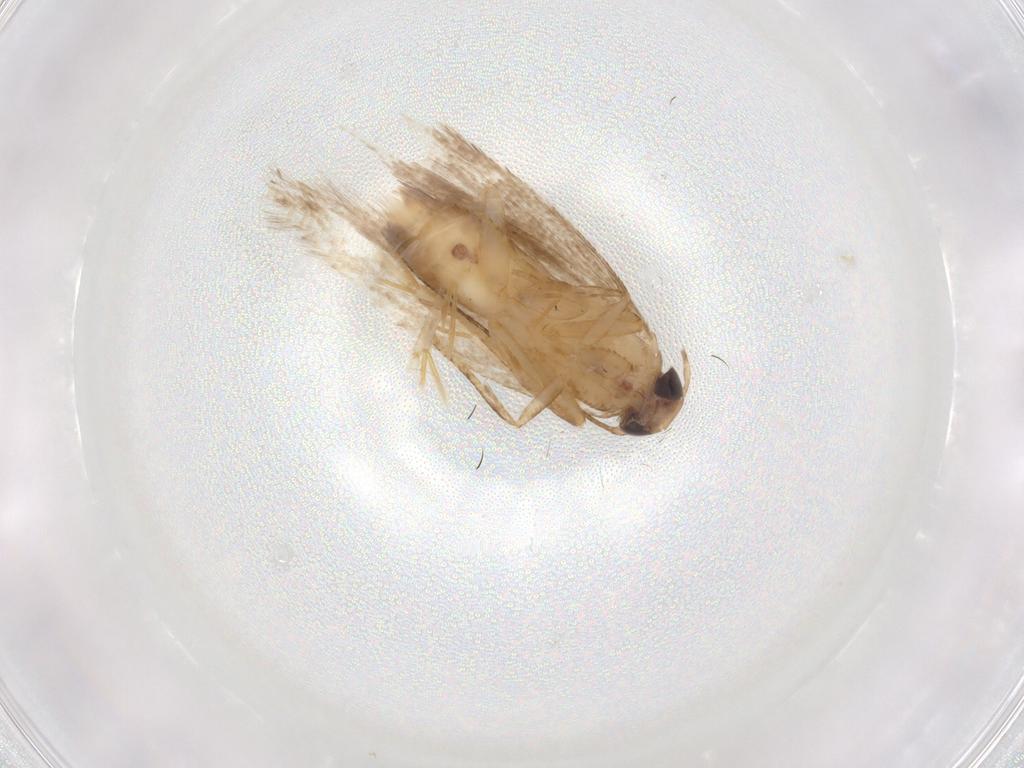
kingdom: Animalia
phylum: Arthropoda
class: Insecta
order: Lepidoptera
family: Gelechiidae
